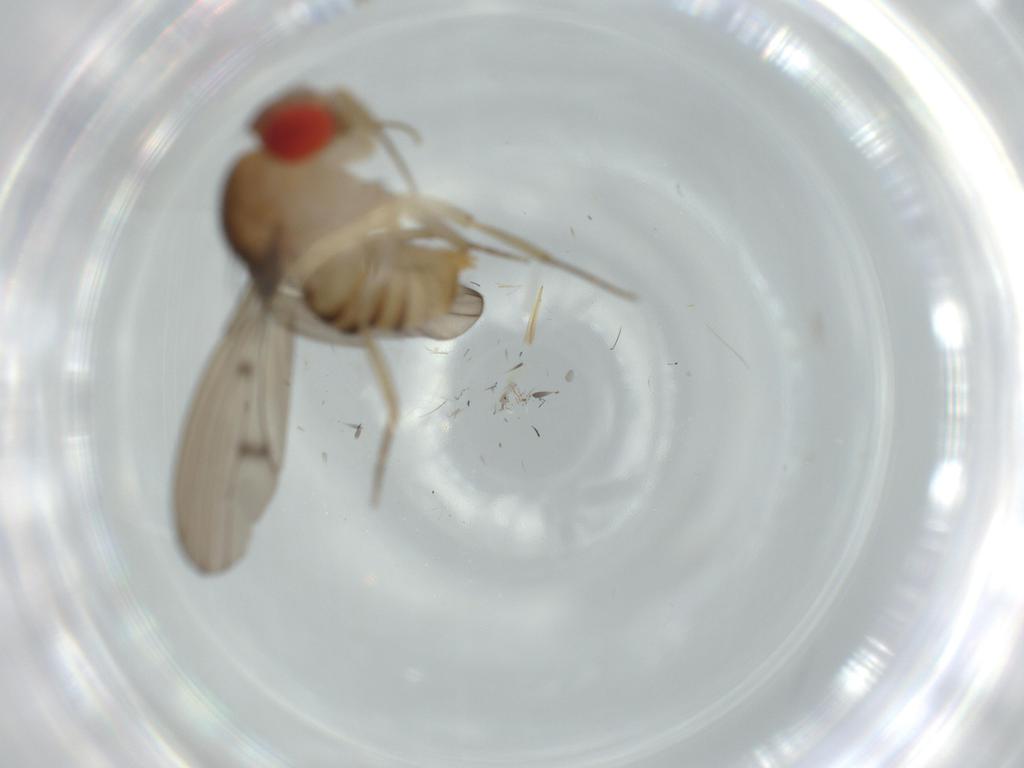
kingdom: Animalia
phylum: Arthropoda
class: Insecta
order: Diptera
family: Drosophilidae
